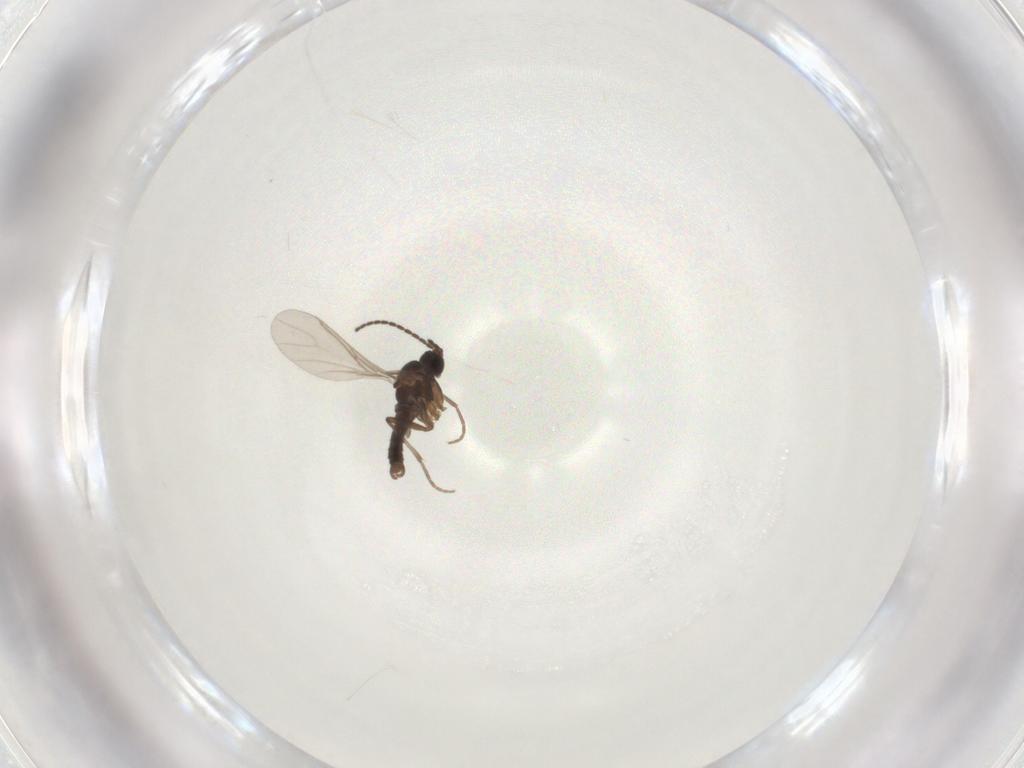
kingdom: Animalia
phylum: Arthropoda
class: Insecta
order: Diptera
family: Sciaridae
